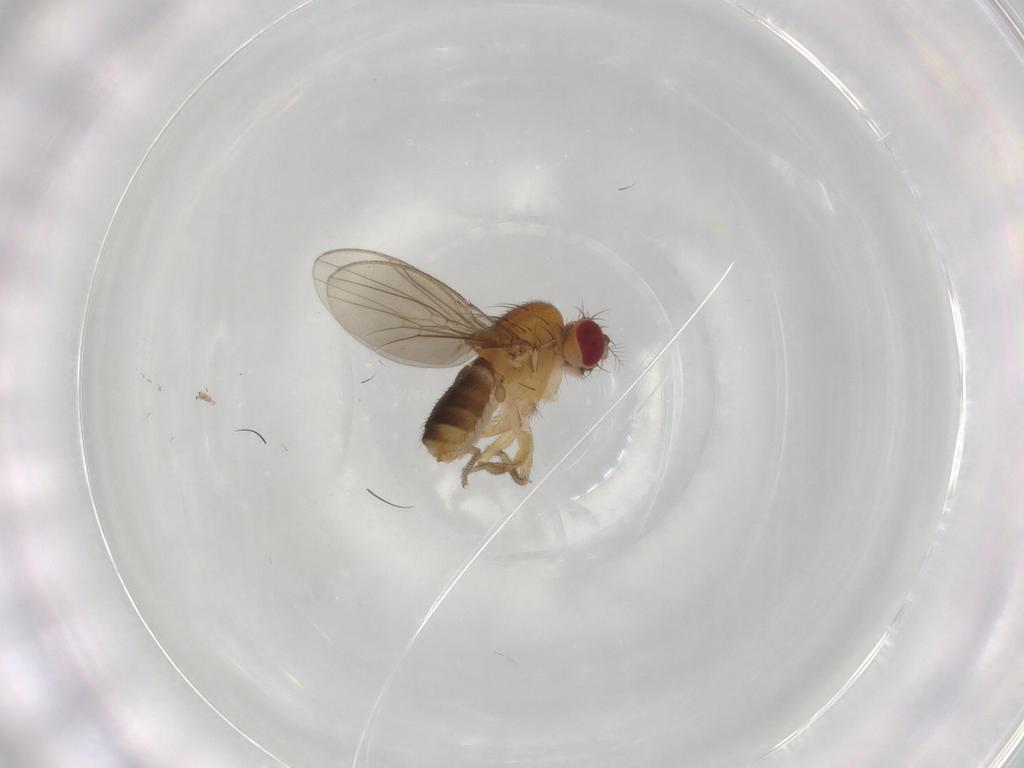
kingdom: Animalia
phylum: Arthropoda
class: Insecta
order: Diptera
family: Drosophilidae
